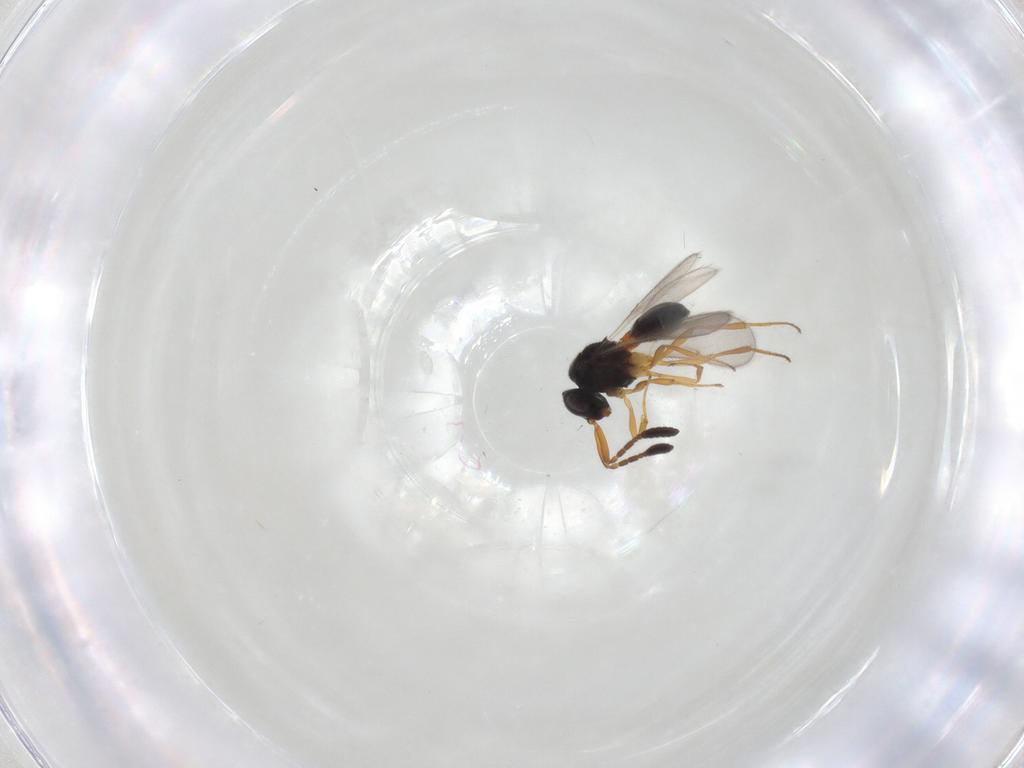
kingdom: Animalia
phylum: Arthropoda
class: Insecta
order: Hymenoptera
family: Scelionidae
